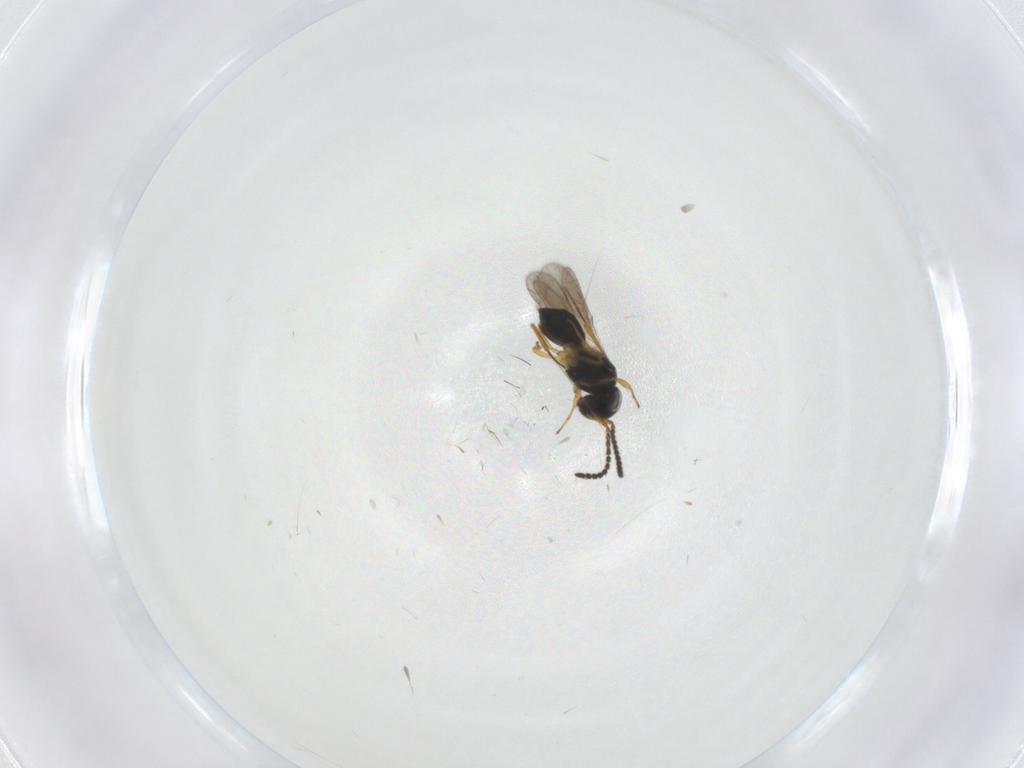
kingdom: Animalia
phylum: Arthropoda
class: Insecta
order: Hymenoptera
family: Scelionidae
